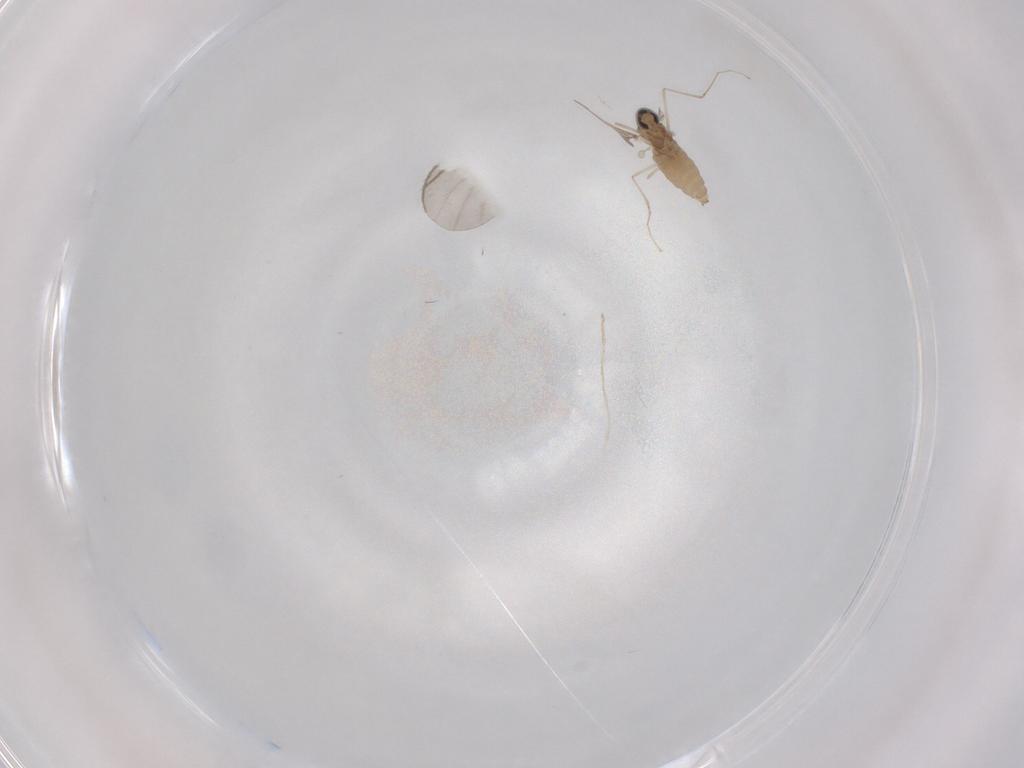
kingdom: Animalia
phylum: Arthropoda
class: Insecta
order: Diptera
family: Cecidomyiidae
